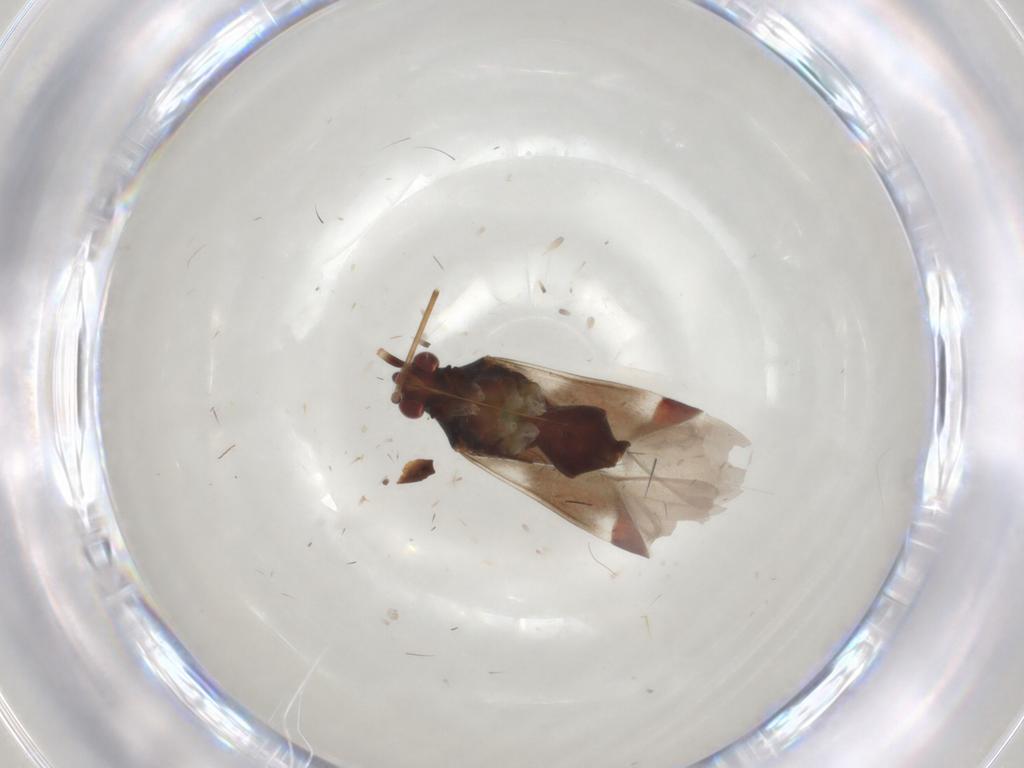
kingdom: Animalia
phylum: Arthropoda
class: Insecta
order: Hemiptera
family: Miridae
